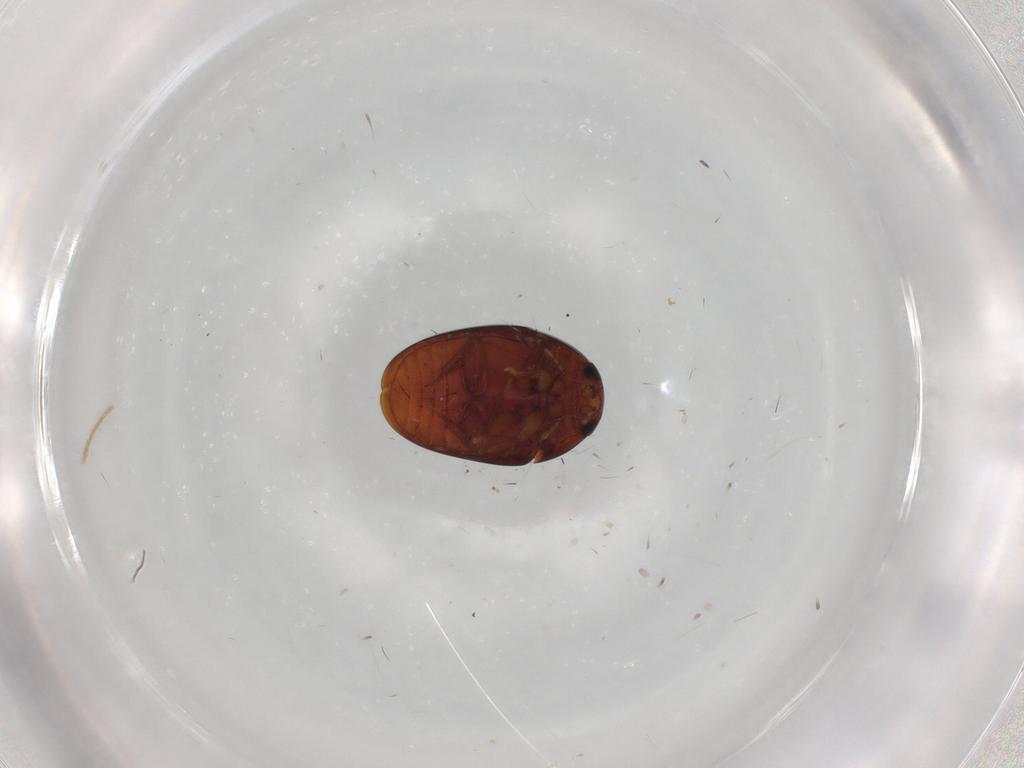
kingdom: Animalia
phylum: Arthropoda
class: Insecta
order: Coleoptera
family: Phalacridae
